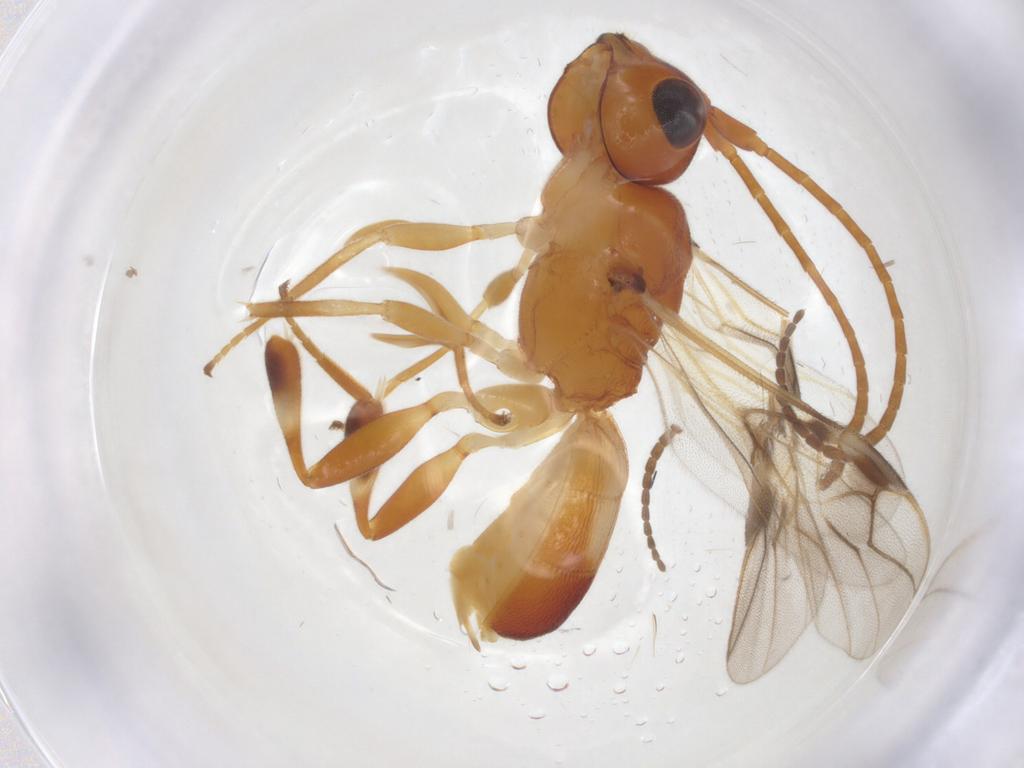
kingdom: Animalia
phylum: Arthropoda
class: Insecta
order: Hymenoptera
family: Braconidae
